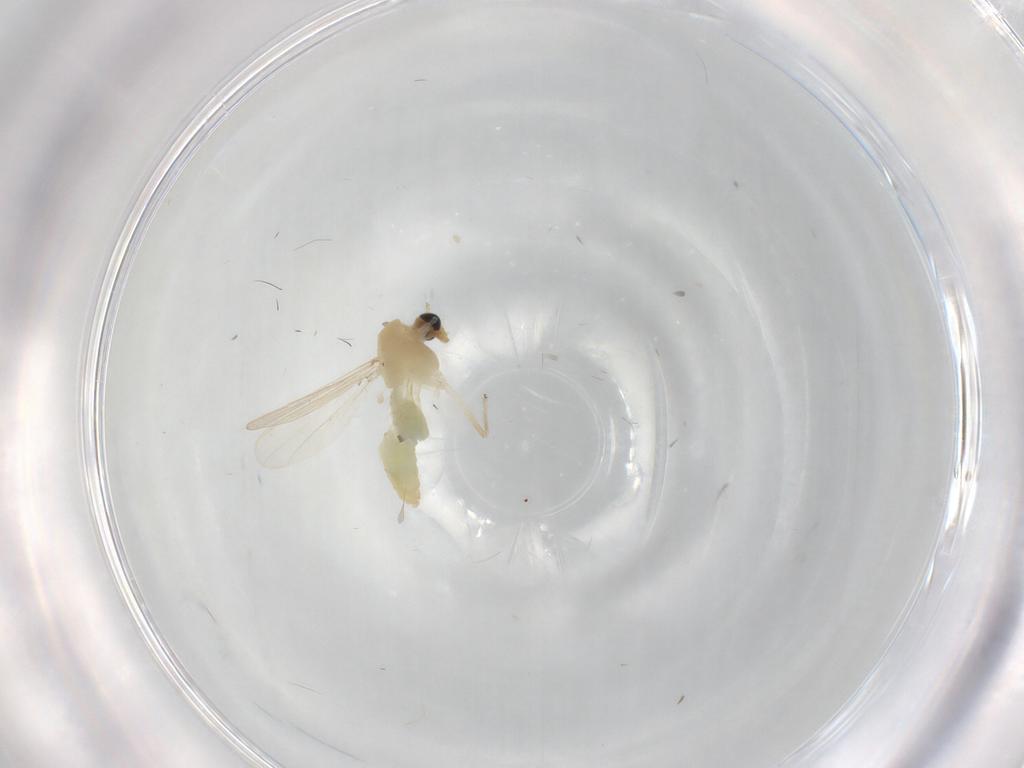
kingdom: Animalia
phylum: Arthropoda
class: Insecta
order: Diptera
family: Chironomidae
